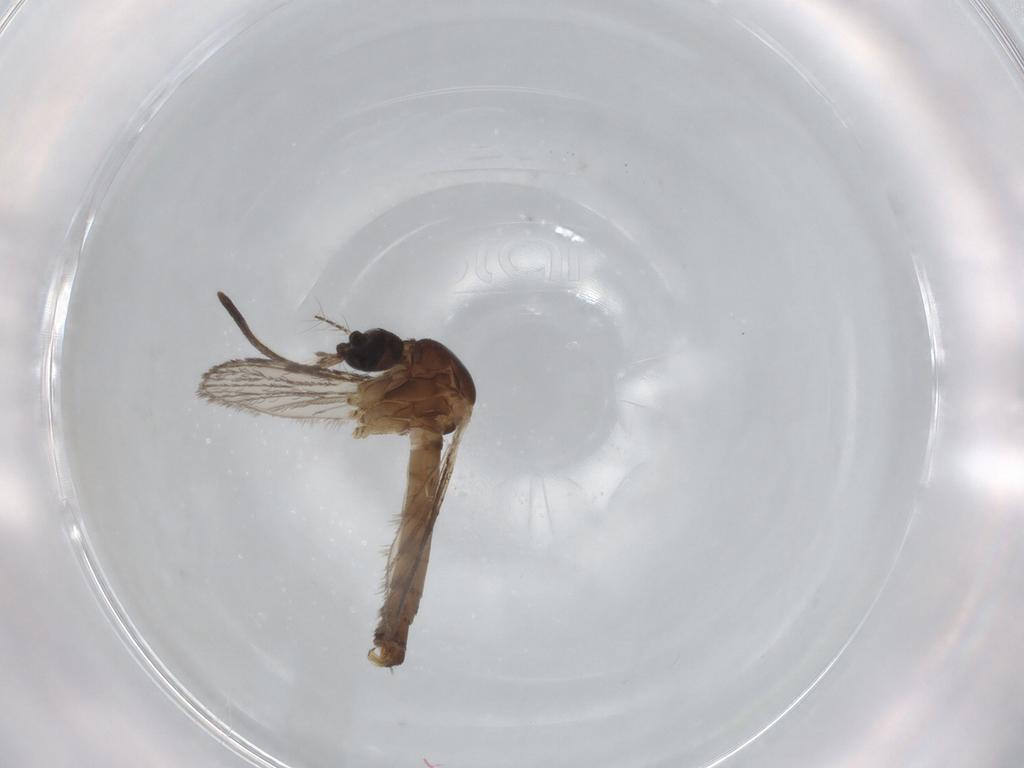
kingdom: Animalia
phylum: Arthropoda
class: Insecta
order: Diptera
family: Culicidae
